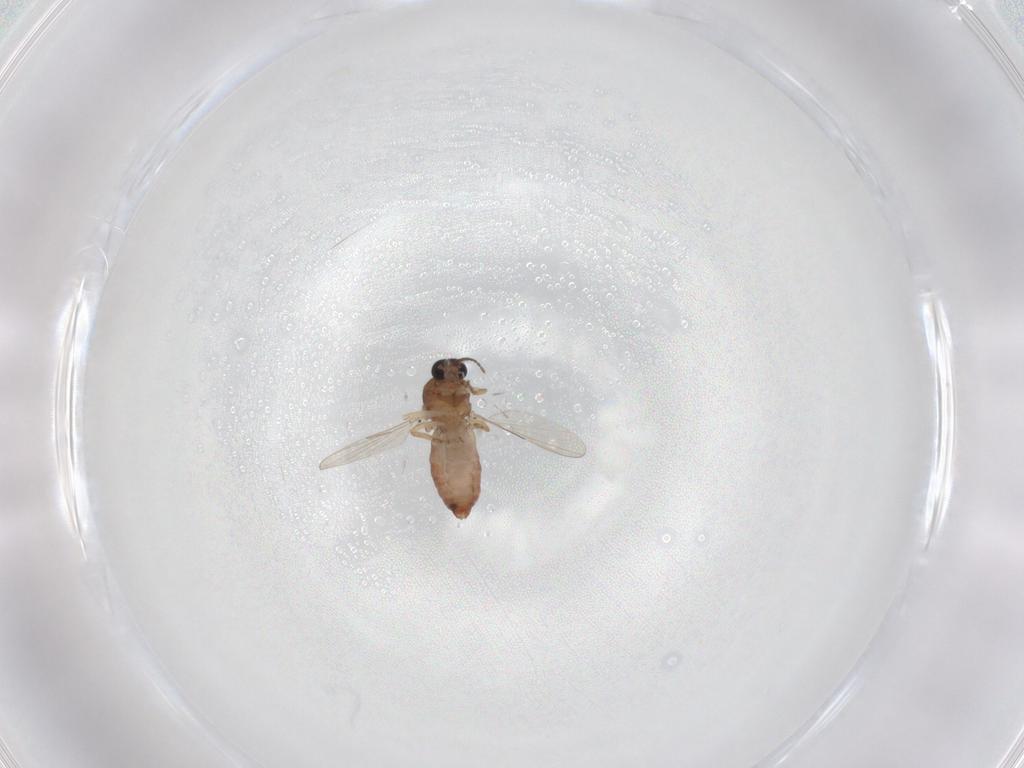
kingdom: Animalia
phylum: Arthropoda
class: Insecta
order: Diptera
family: Ceratopogonidae
